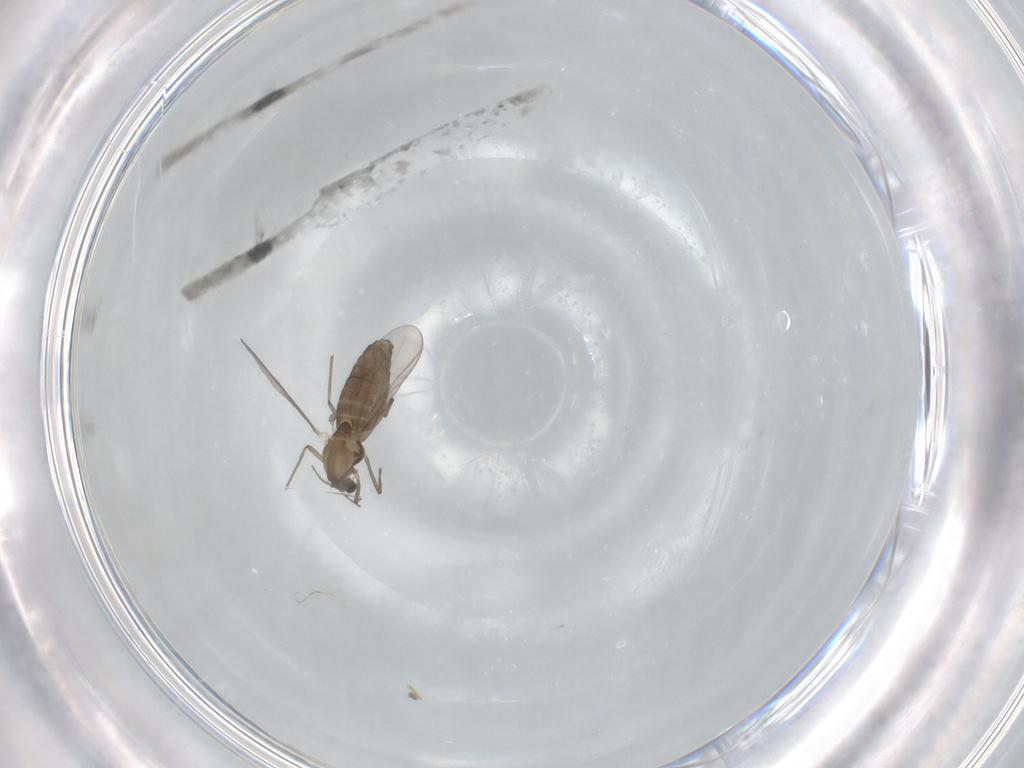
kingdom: Animalia
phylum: Arthropoda
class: Insecta
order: Diptera
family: Chironomidae
